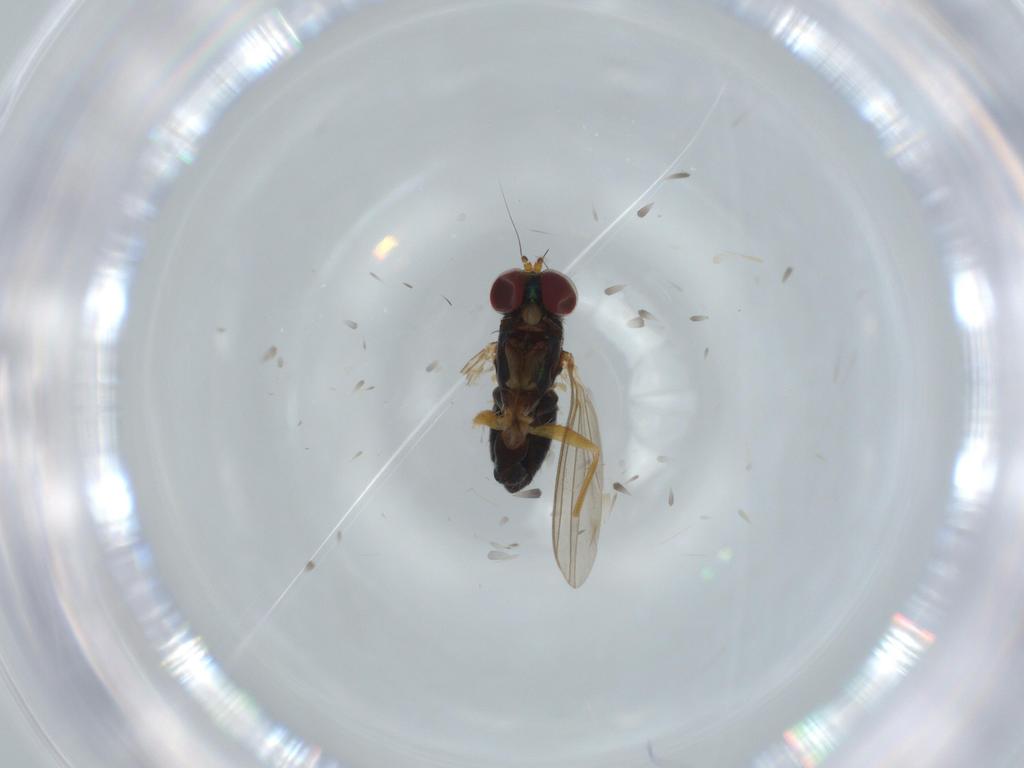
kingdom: Animalia
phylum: Arthropoda
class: Insecta
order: Diptera
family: Dolichopodidae
